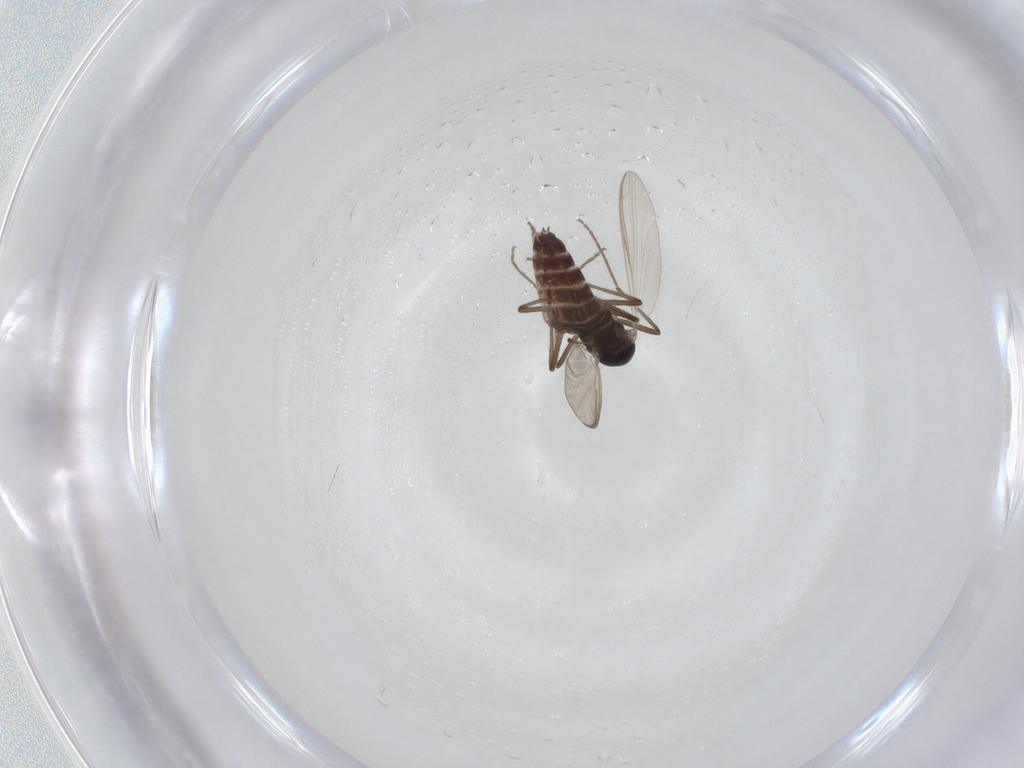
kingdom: Animalia
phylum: Arthropoda
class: Insecta
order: Diptera
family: Chironomidae
